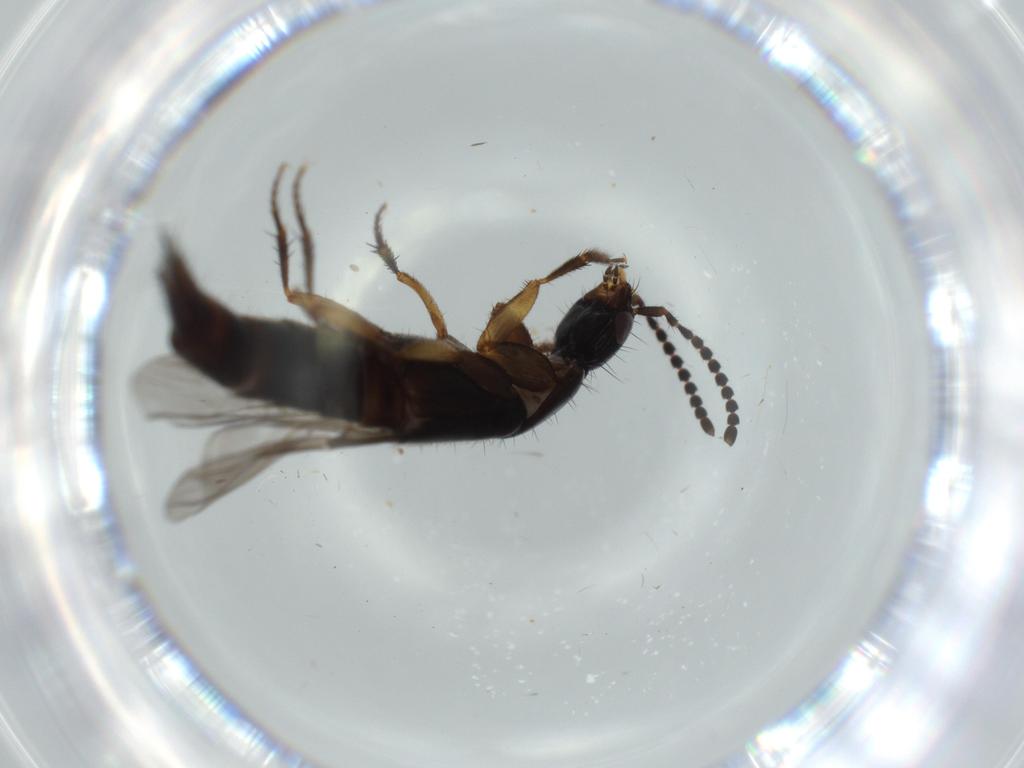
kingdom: Animalia
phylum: Arthropoda
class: Insecta
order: Coleoptera
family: Staphylinidae
